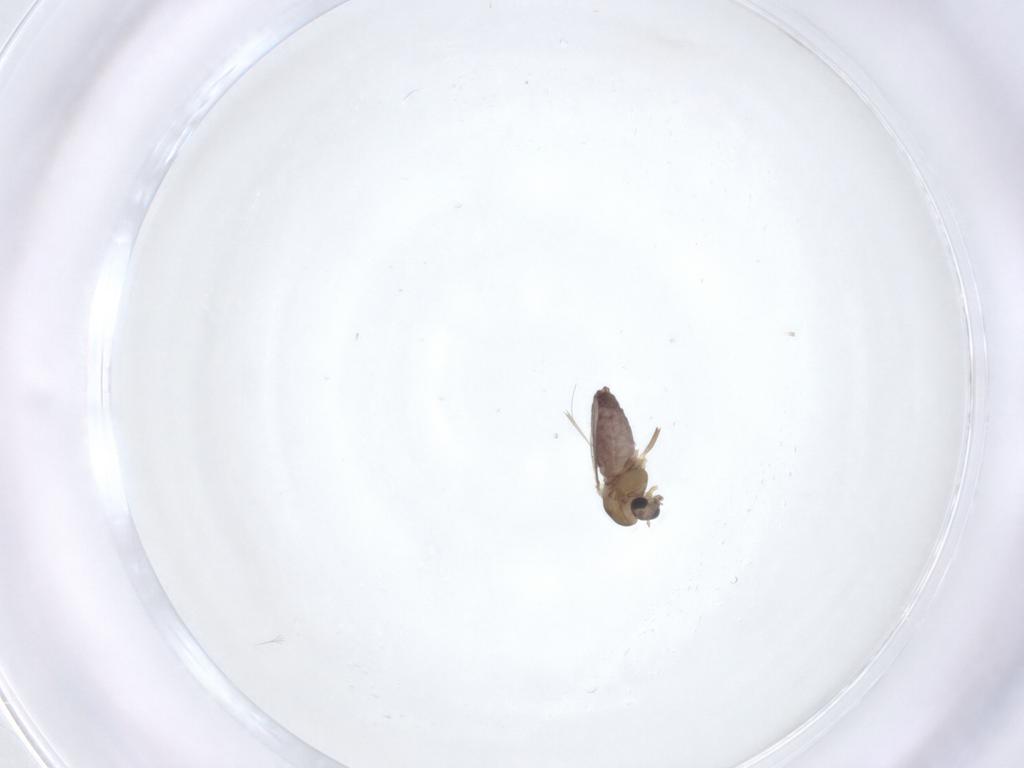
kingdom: Animalia
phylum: Arthropoda
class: Insecta
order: Diptera
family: Chironomidae
